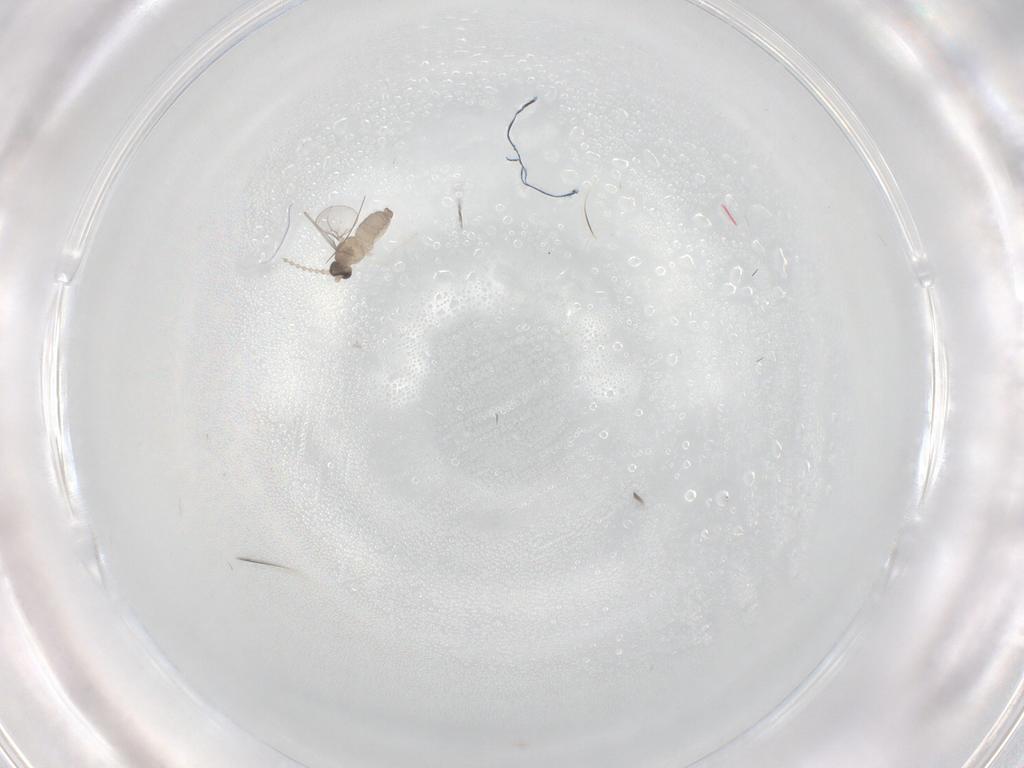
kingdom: Animalia
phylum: Arthropoda
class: Insecta
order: Diptera
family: Cecidomyiidae
